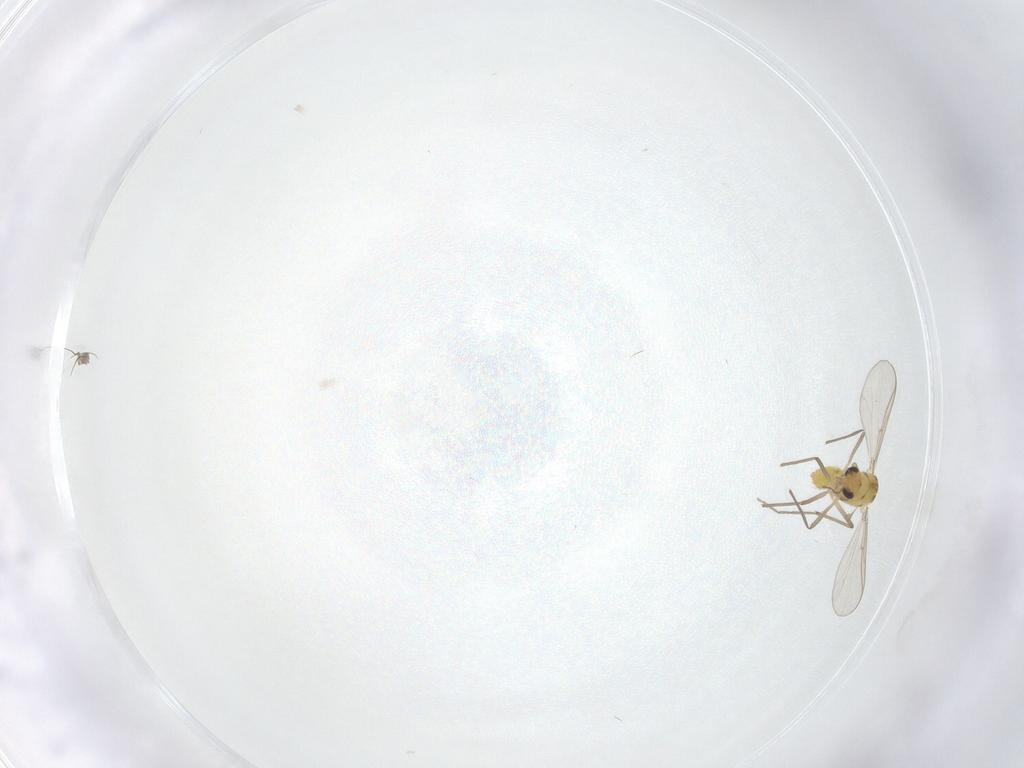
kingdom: Animalia
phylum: Arthropoda
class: Insecta
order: Diptera
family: Chironomidae
